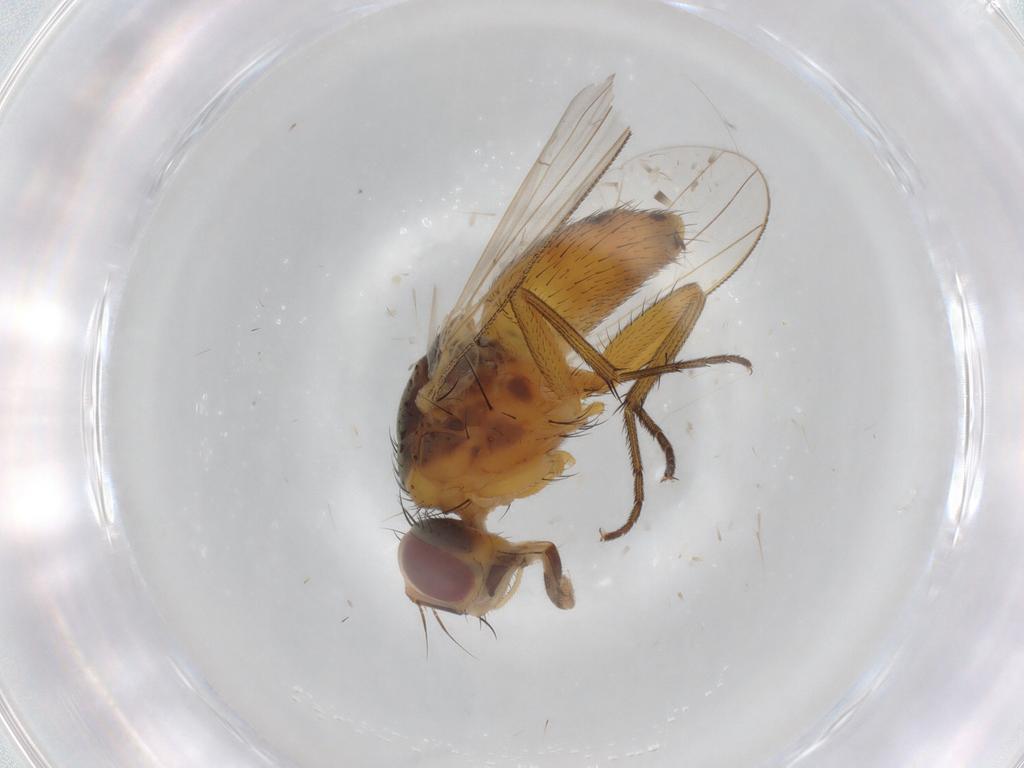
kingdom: Animalia
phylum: Arthropoda
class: Insecta
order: Diptera
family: Muscidae
